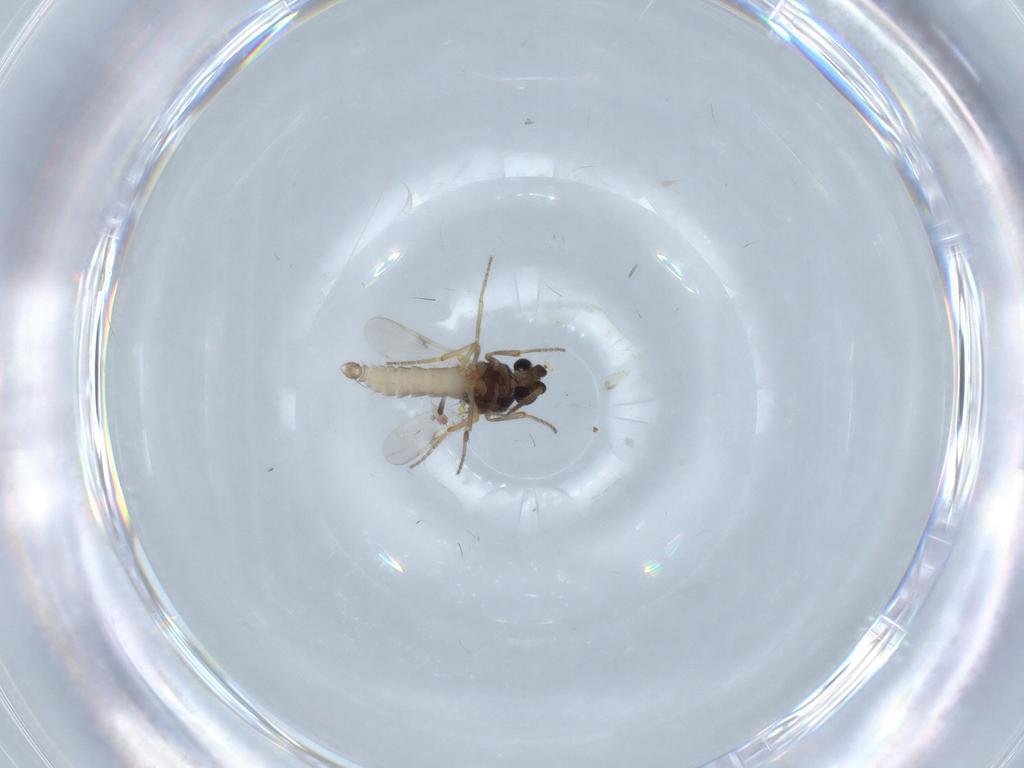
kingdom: Animalia
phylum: Arthropoda
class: Insecta
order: Diptera
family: Ceratopogonidae
